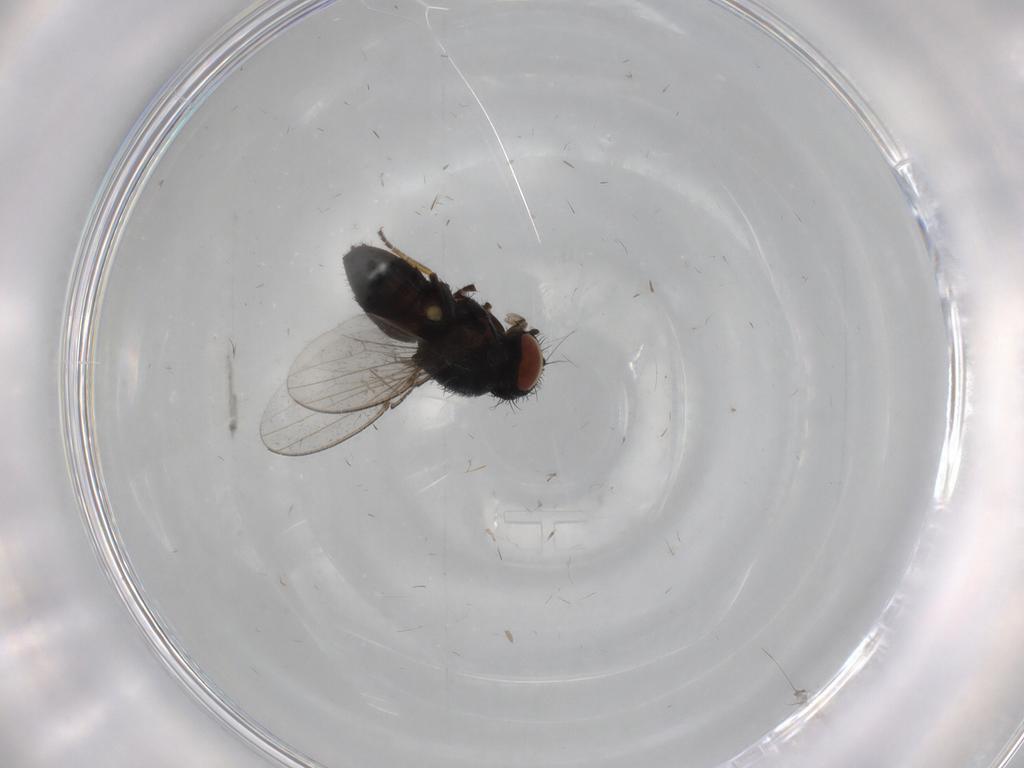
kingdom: Animalia
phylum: Arthropoda
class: Insecta
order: Diptera
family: Milichiidae
